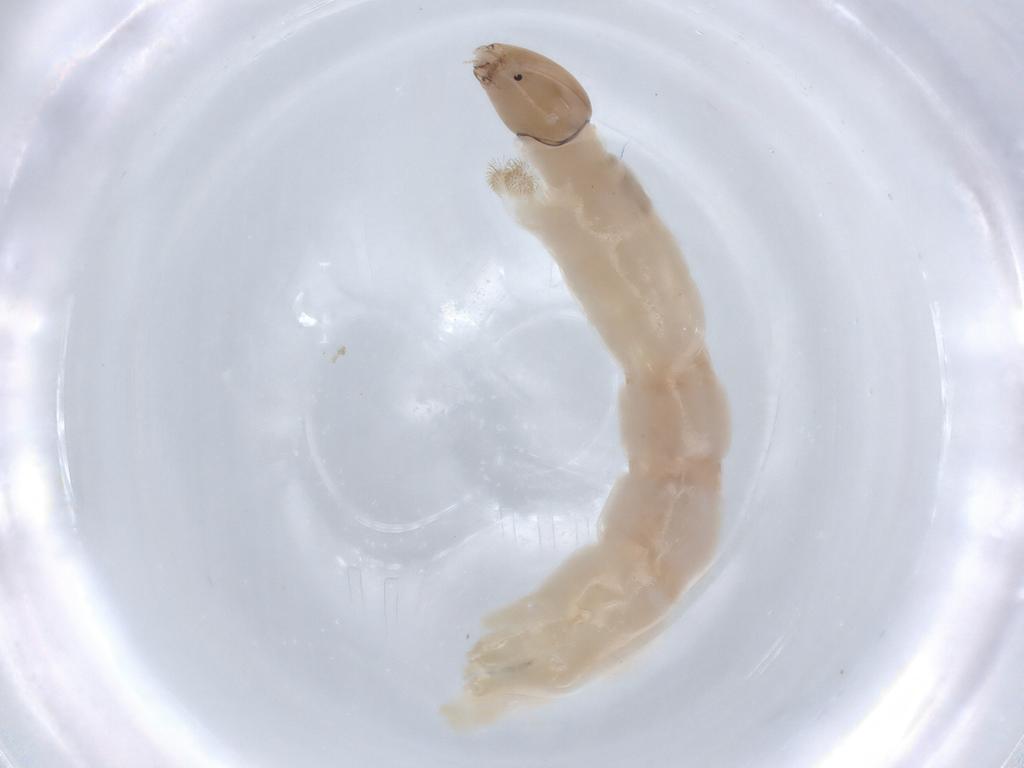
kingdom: Animalia
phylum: Arthropoda
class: Insecta
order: Diptera
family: Chironomidae
